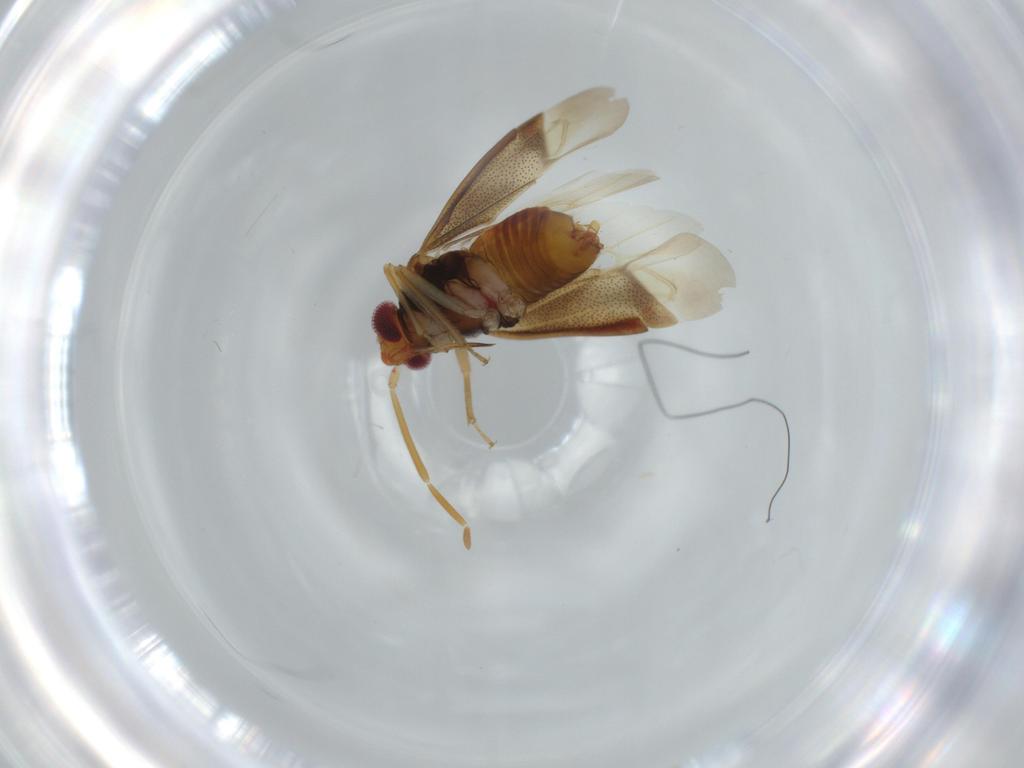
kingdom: Animalia
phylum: Arthropoda
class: Insecta
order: Hemiptera
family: Miridae
